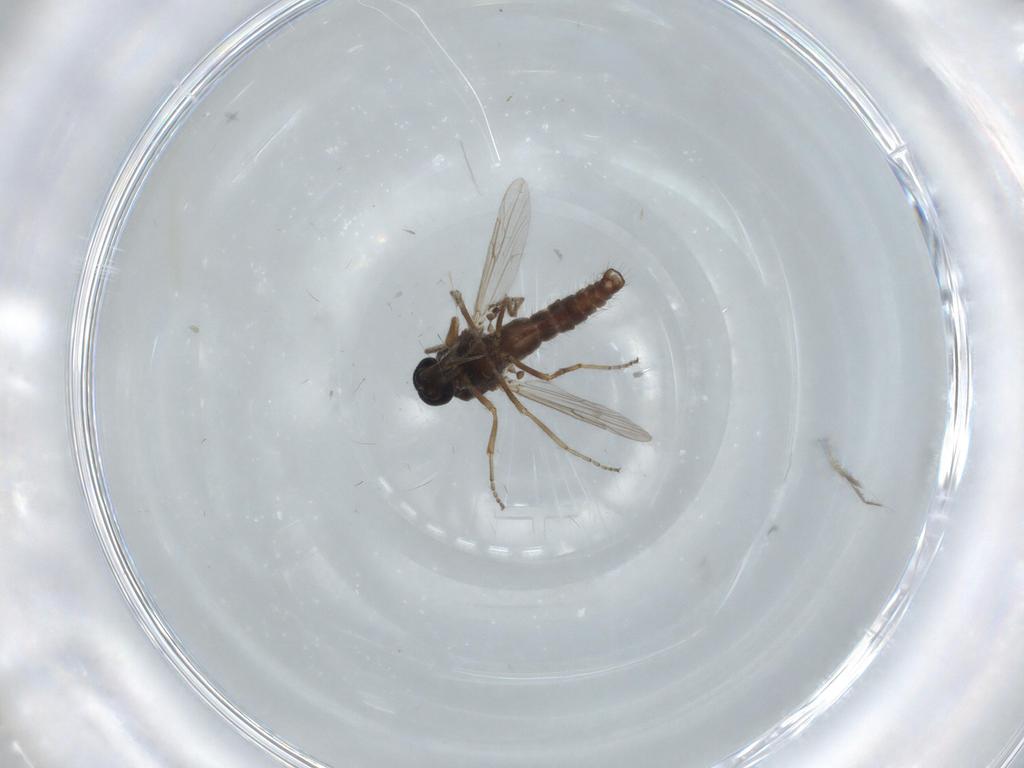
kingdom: Animalia
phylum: Arthropoda
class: Insecta
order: Diptera
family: Ceratopogonidae
